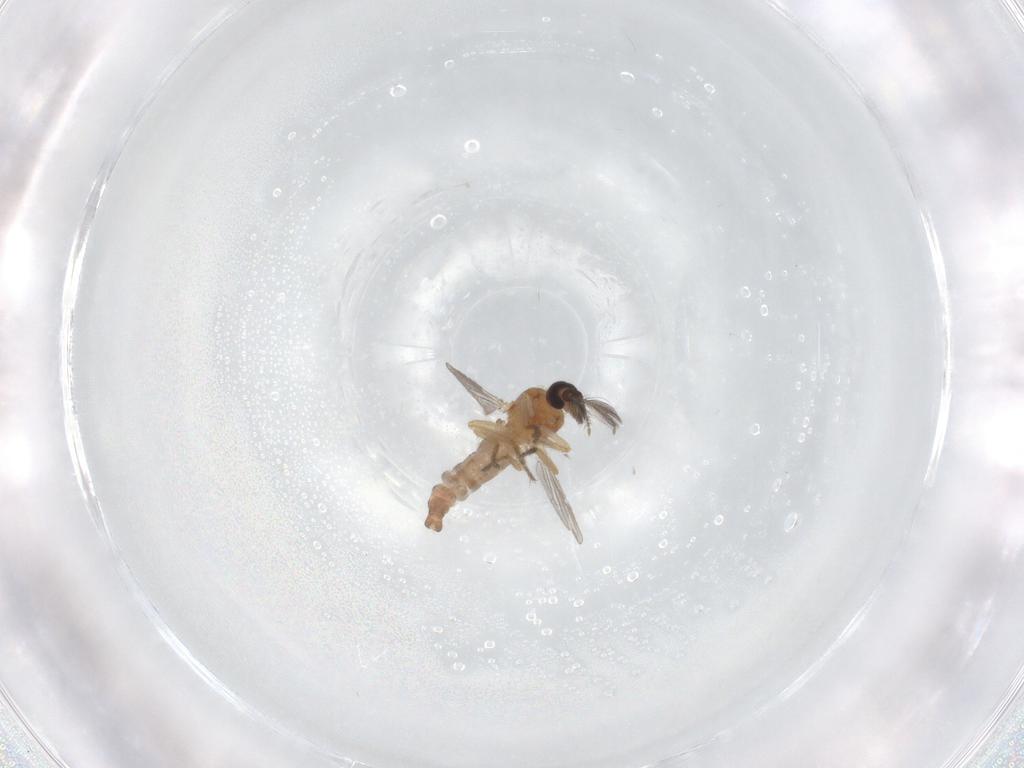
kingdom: Animalia
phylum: Arthropoda
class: Insecta
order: Diptera
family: Ceratopogonidae
